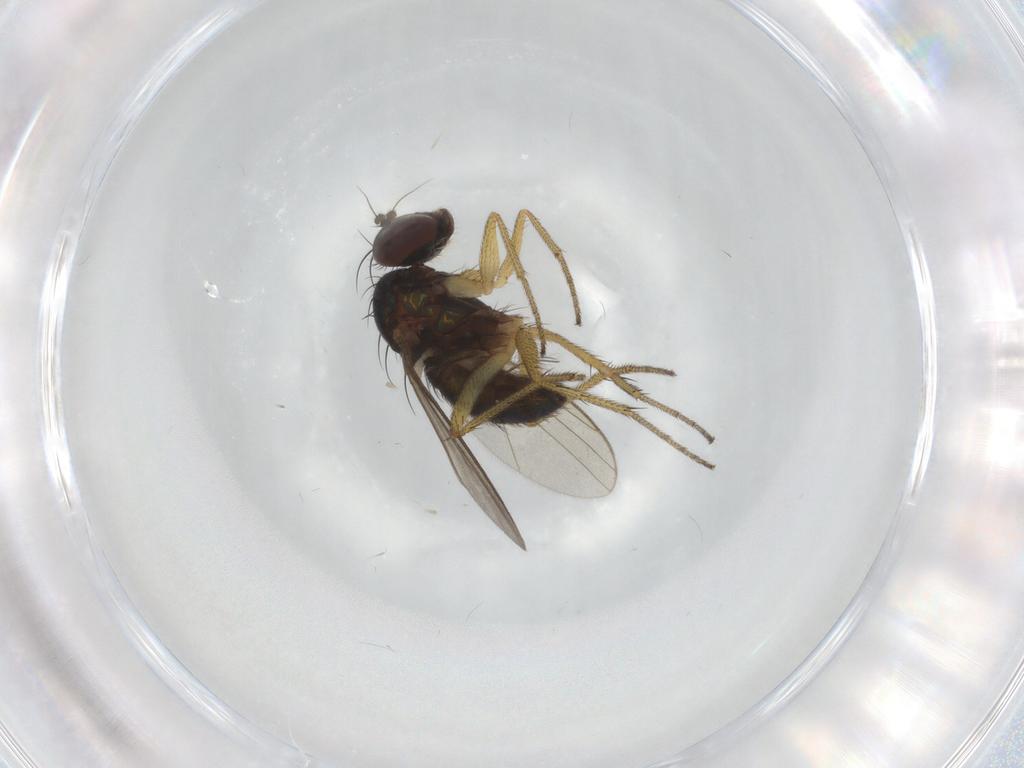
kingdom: Animalia
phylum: Arthropoda
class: Insecta
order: Diptera
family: Dolichopodidae
